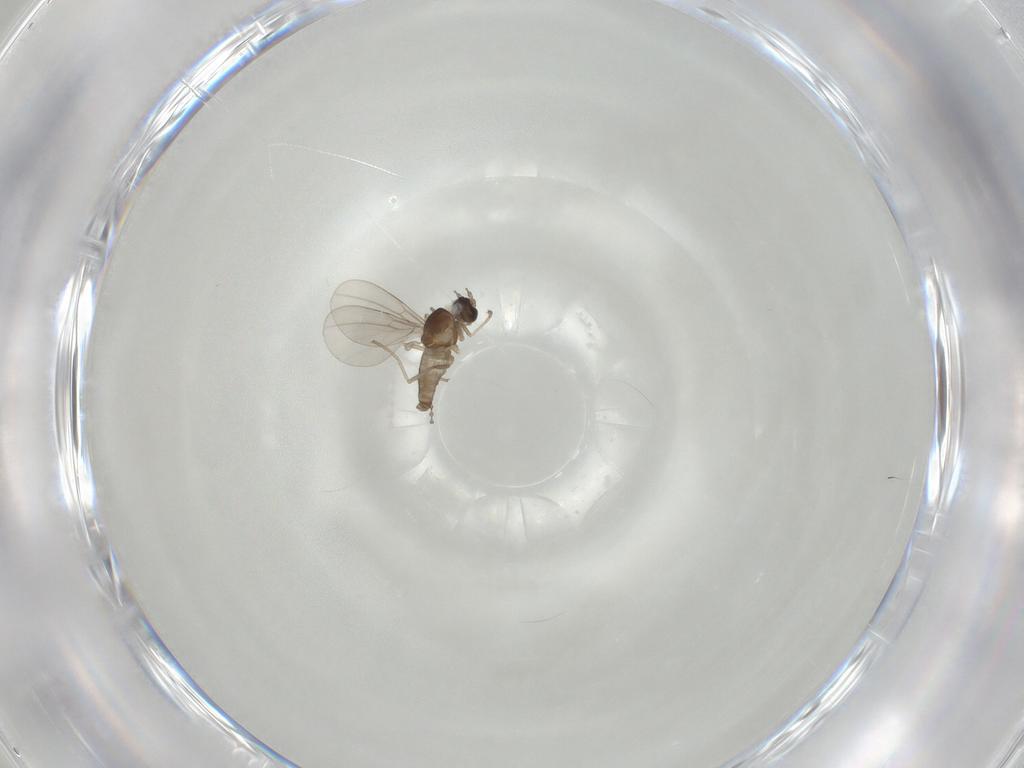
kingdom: Animalia
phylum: Arthropoda
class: Insecta
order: Diptera
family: Cecidomyiidae
